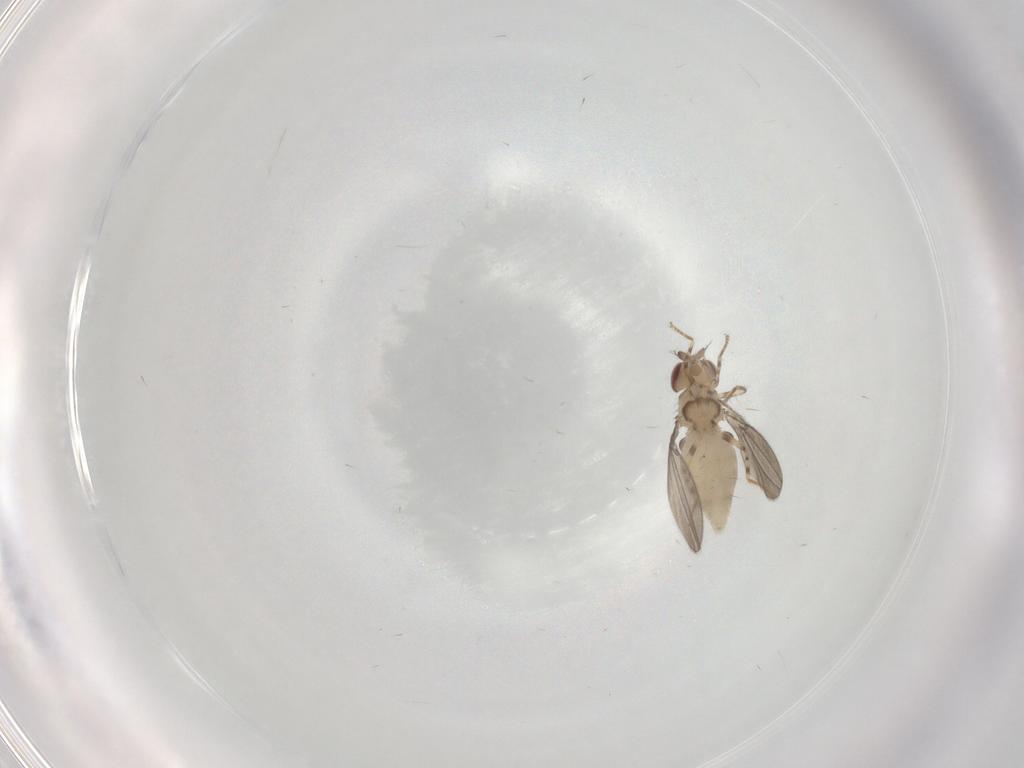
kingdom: Animalia
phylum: Arthropoda
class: Insecta
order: Diptera
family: Asteiidae
